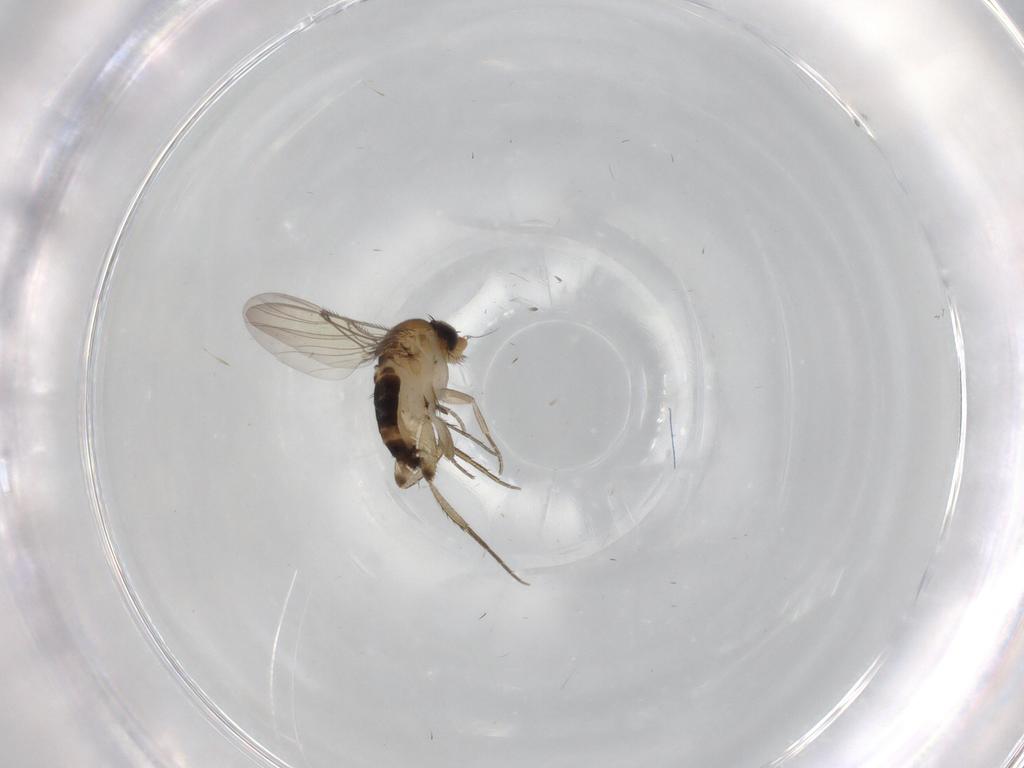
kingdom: Animalia
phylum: Arthropoda
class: Insecta
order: Diptera
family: Phoridae
